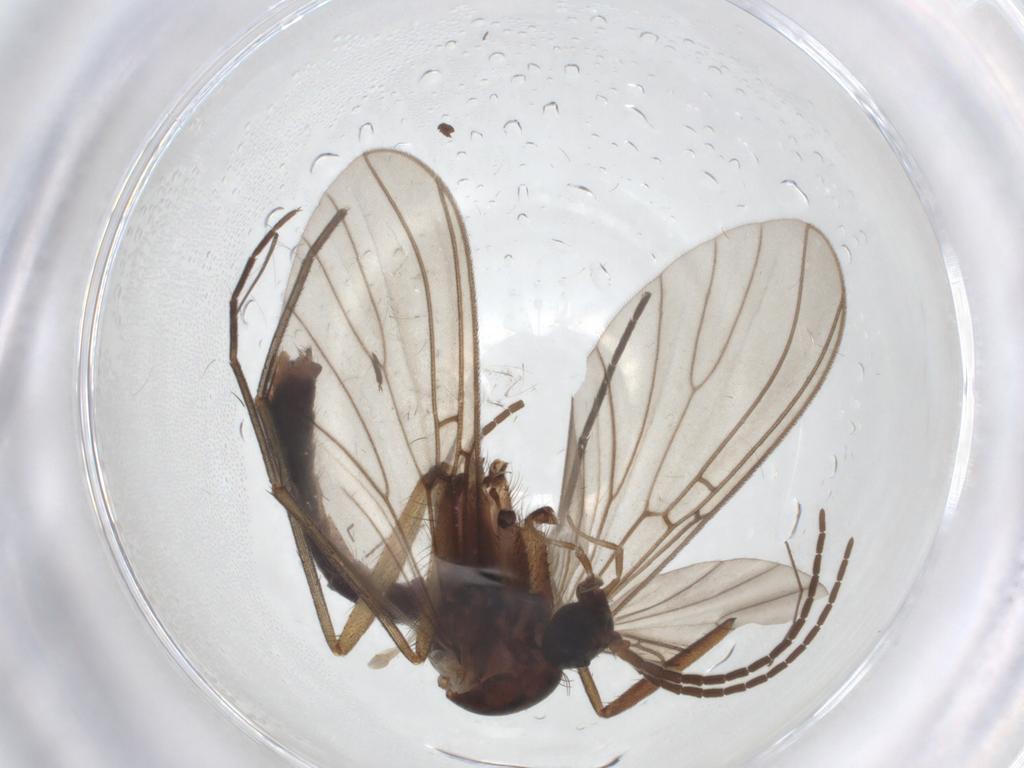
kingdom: Animalia
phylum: Arthropoda
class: Insecta
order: Diptera
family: Mycetophilidae
